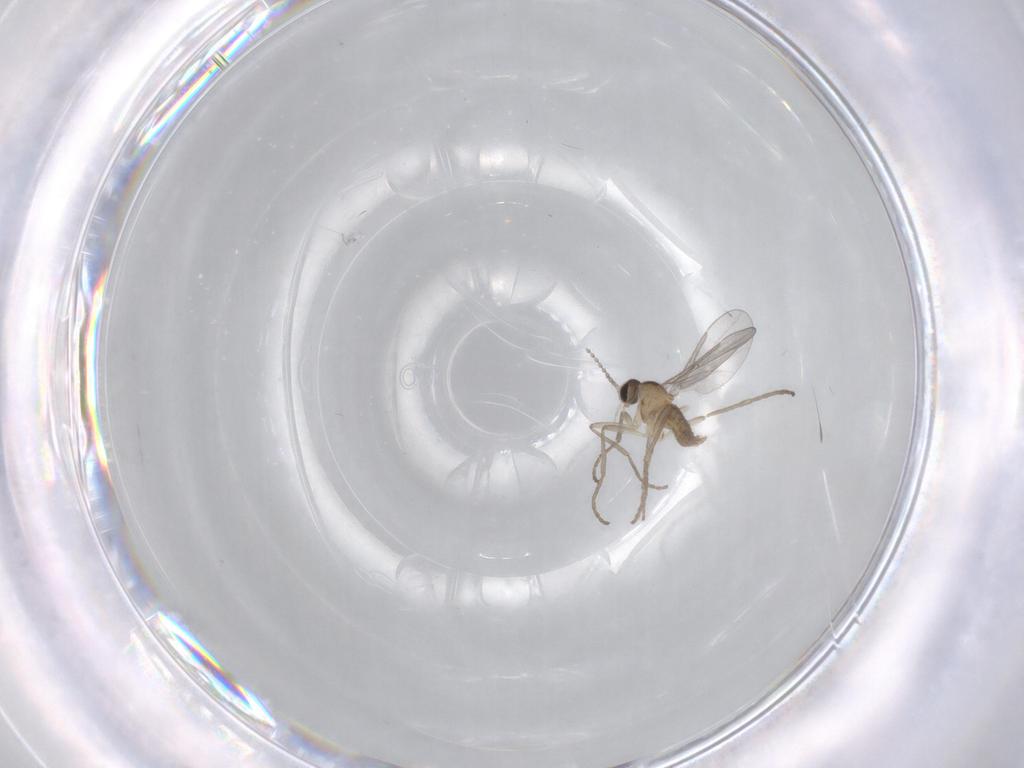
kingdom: Animalia
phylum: Arthropoda
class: Insecta
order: Diptera
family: Cecidomyiidae
